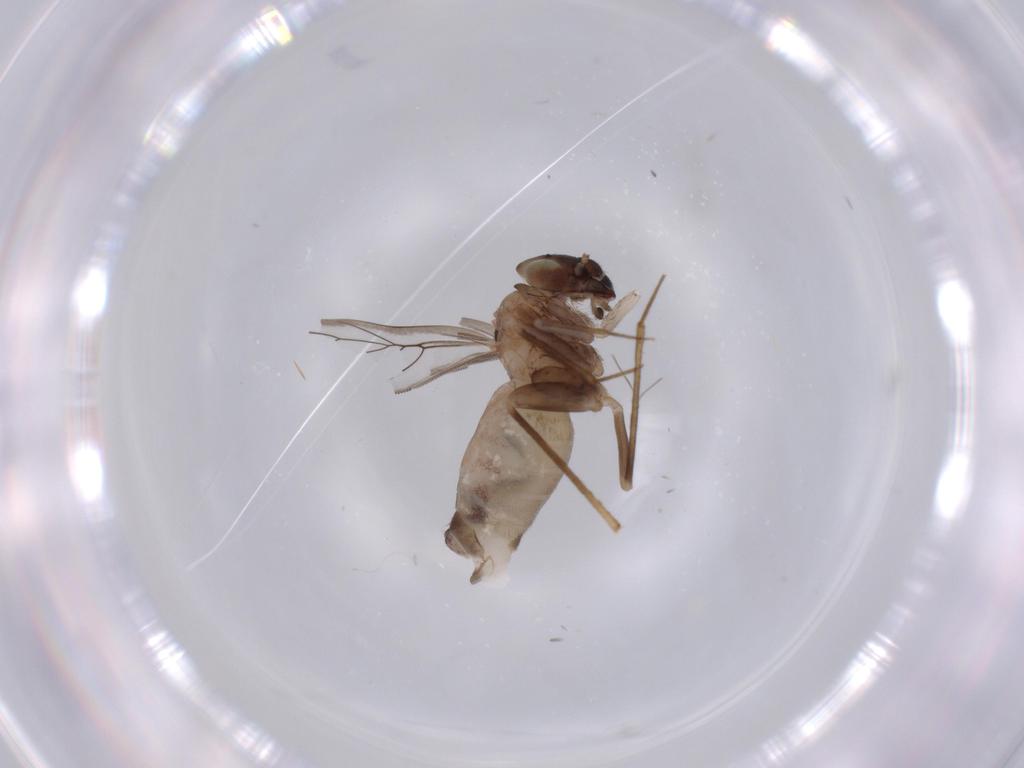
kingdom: Animalia
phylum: Arthropoda
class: Insecta
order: Psocodea
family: Lepidopsocidae
